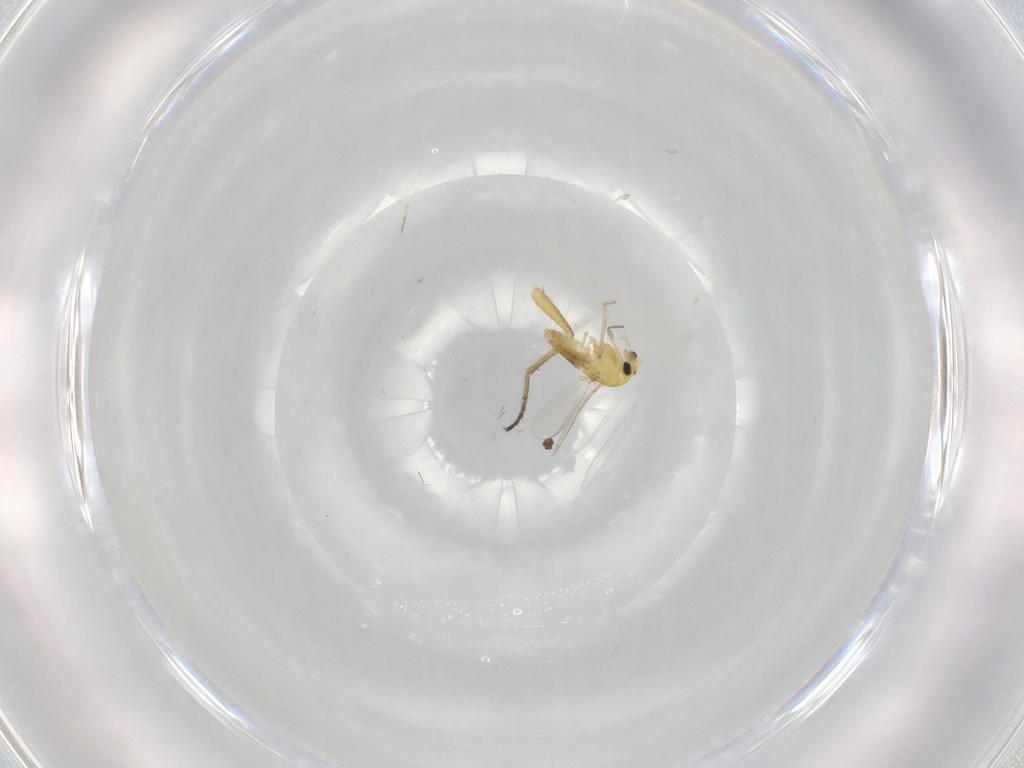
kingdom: Animalia
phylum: Arthropoda
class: Insecta
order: Diptera
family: Chironomidae
